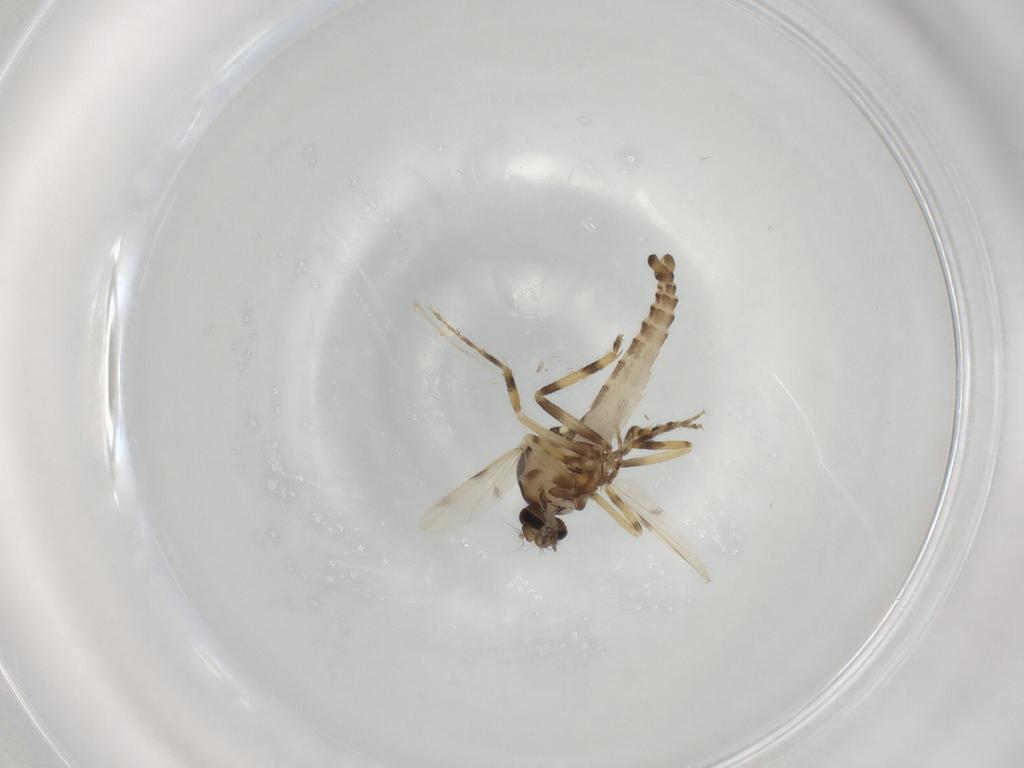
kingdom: Animalia
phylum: Arthropoda
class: Insecta
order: Diptera
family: Ceratopogonidae
